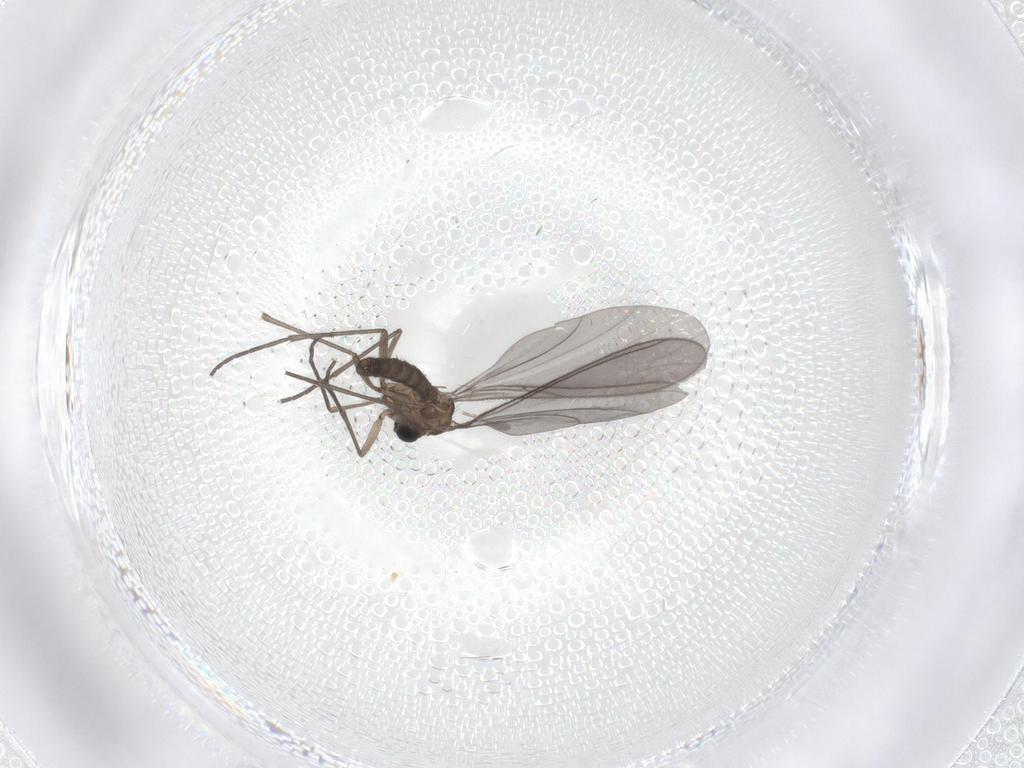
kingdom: Animalia
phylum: Arthropoda
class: Insecta
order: Diptera
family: Sciaridae
